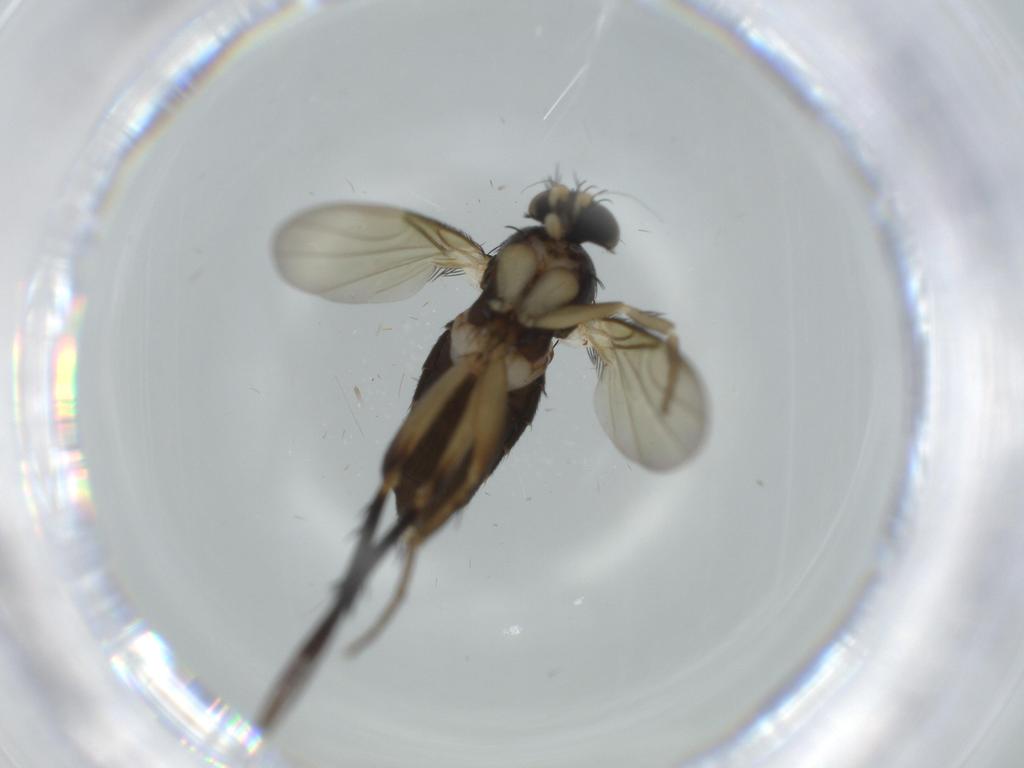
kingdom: Animalia
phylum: Arthropoda
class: Insecta
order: Diptera
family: Phoridae
